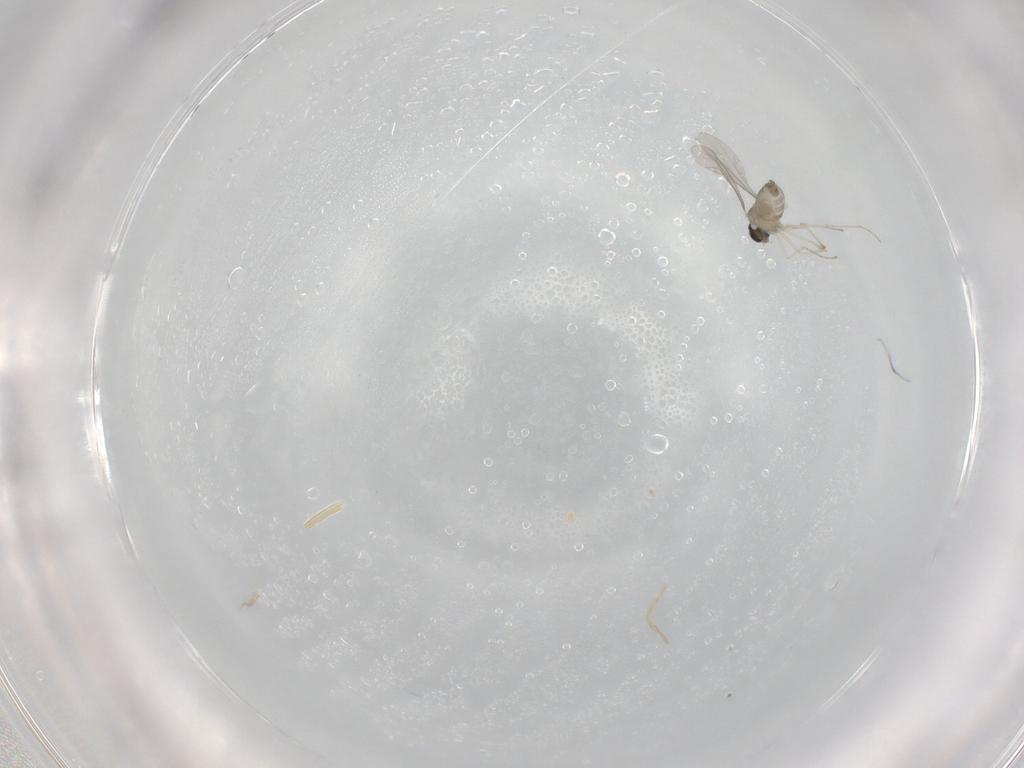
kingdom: Animalia
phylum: Arthropoda
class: Insecta
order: Diptera
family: Cecidomyiidae
